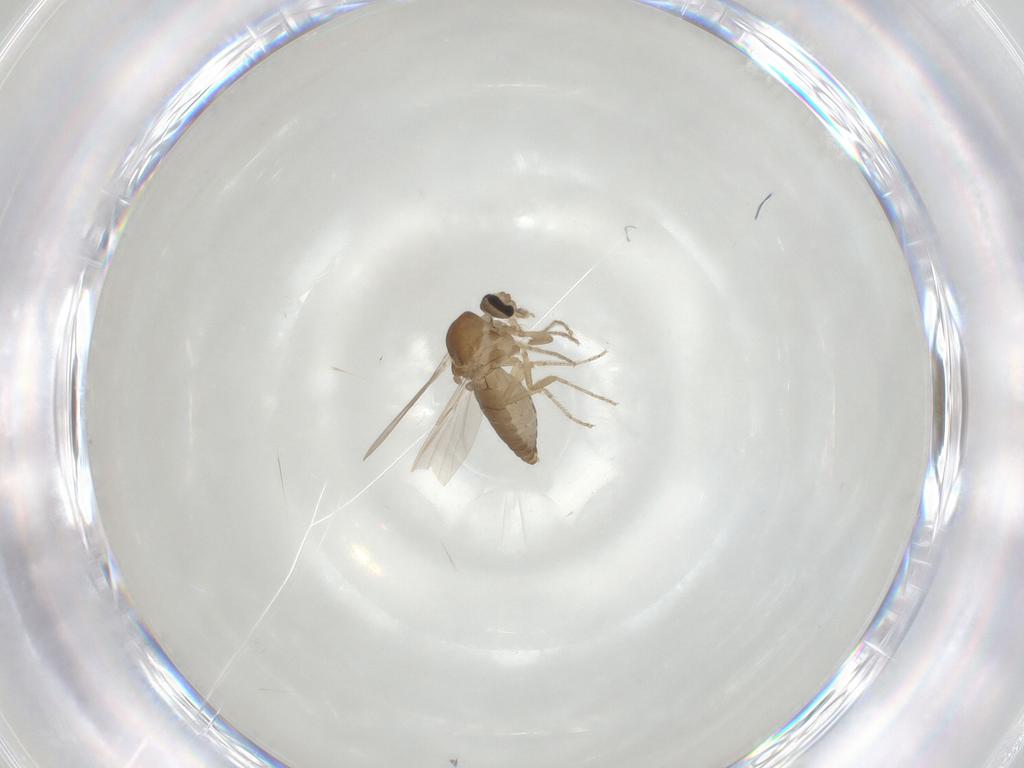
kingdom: Animalia
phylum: Arthropoda
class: Insecta
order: Diptera
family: Ceratopogonidae
